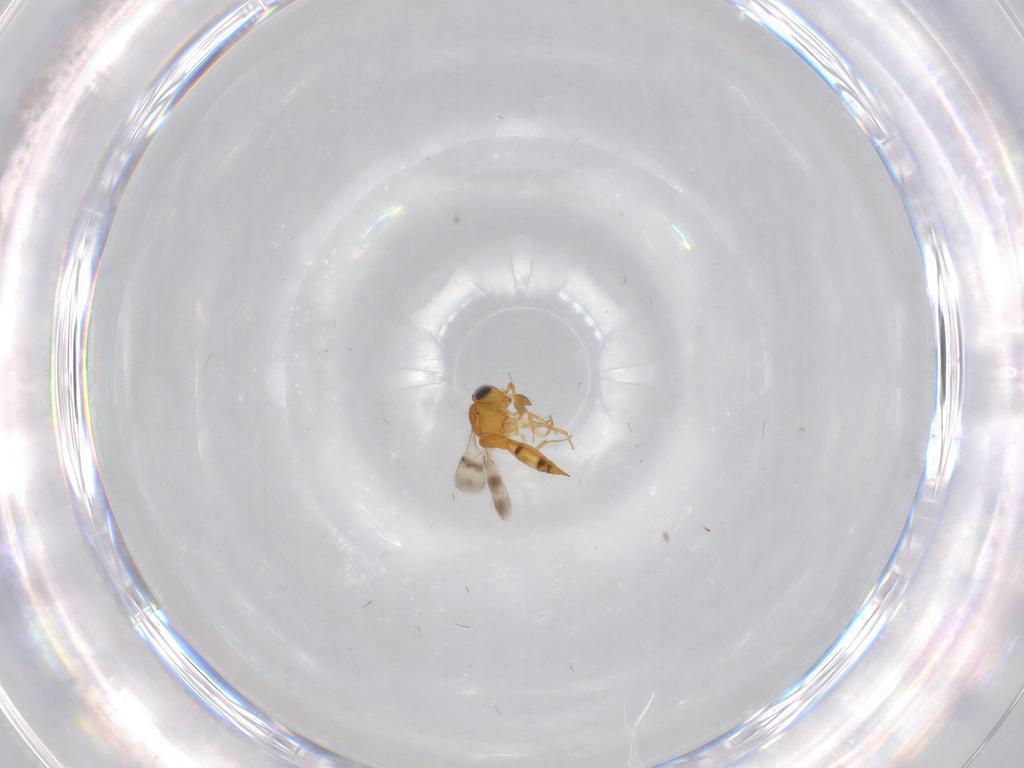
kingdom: Animalia
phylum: Arthropoda
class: Insecta
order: Hymenoptera
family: Scelionidae
